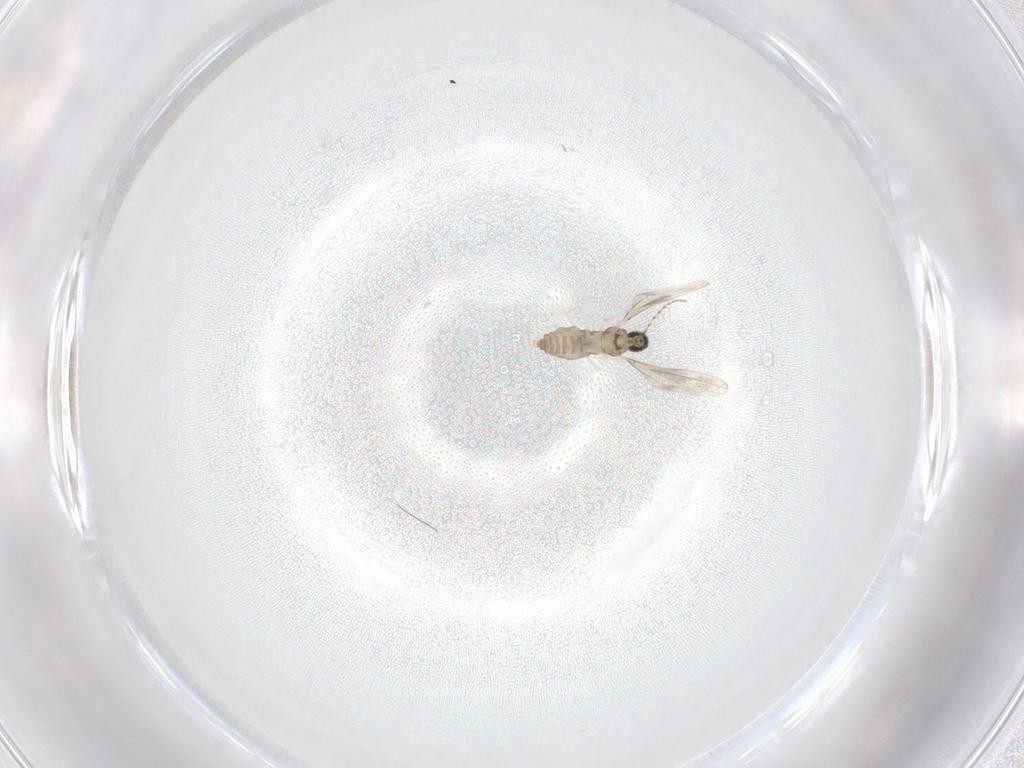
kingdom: Animalia
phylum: Arthropoda
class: Insecta
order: Diptera
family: Cecidomyiidae
